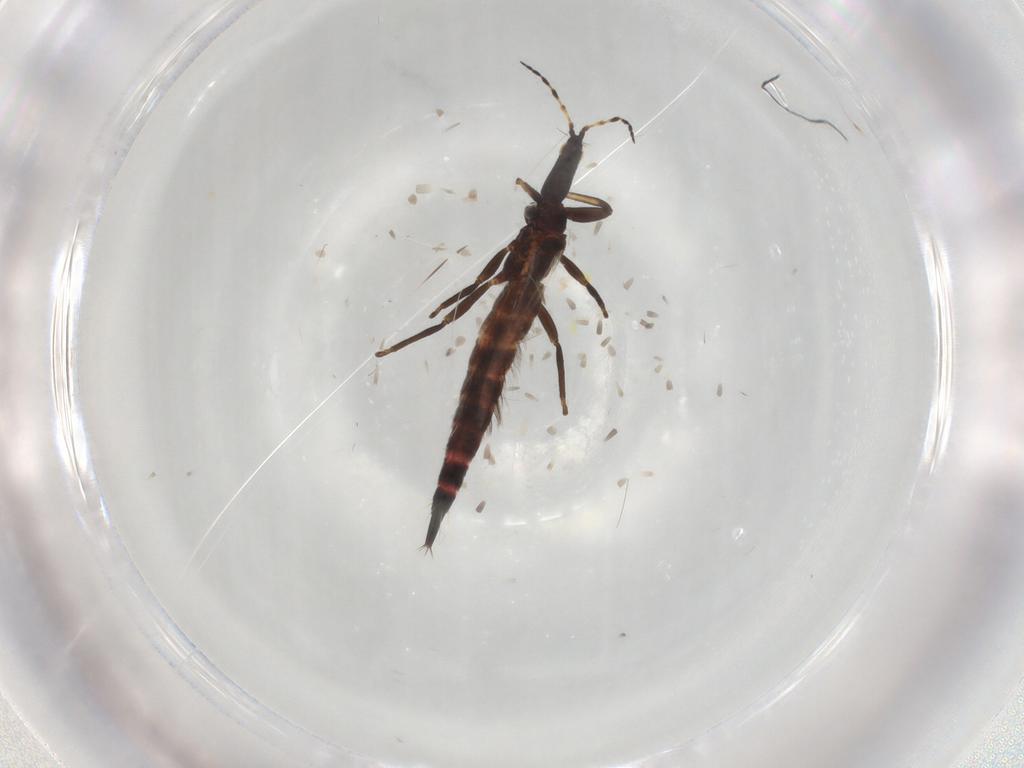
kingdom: Animalia
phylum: Arthropoda
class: Insecta
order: Thysanoptera
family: Phlaeothripidae
